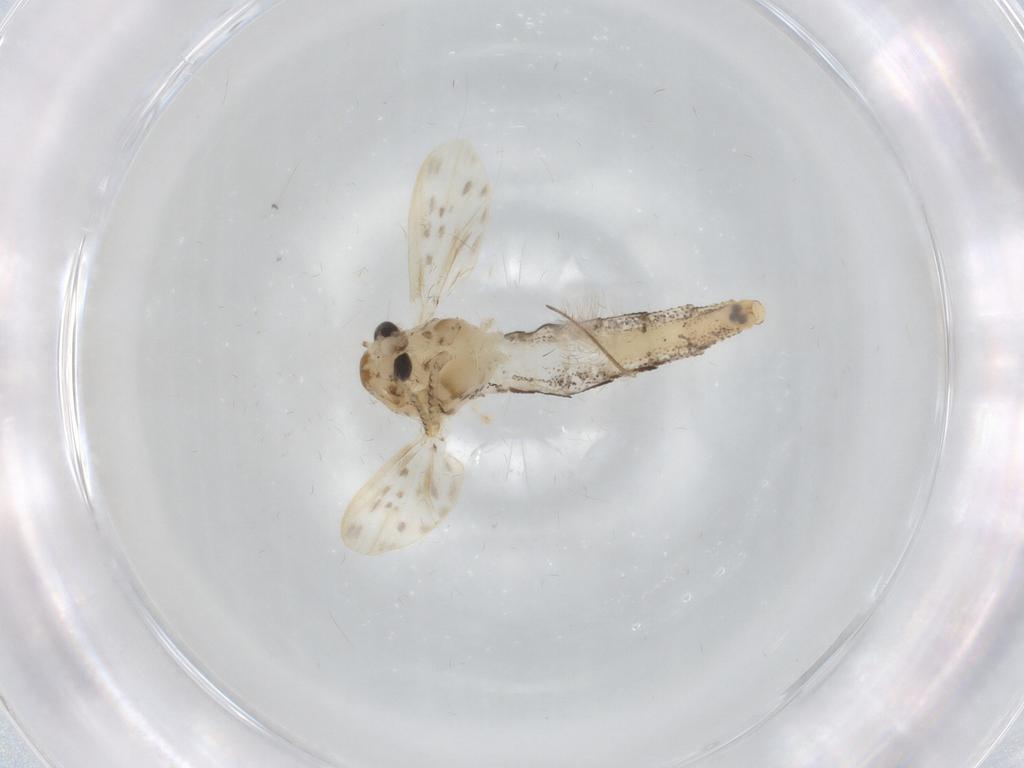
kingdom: Animalia
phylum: Arthropoda
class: Insecta
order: Diptera
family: Chaoboridae
